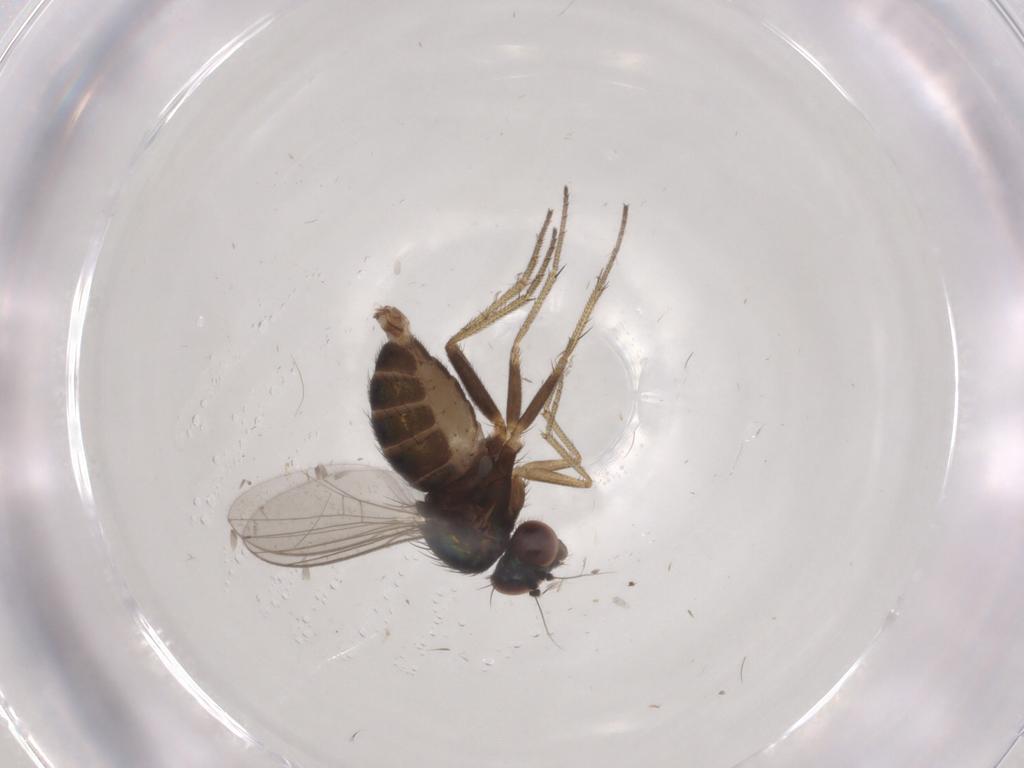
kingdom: Animalia
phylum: Arthropoda
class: Insecta
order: Diptera
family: Dolichopodidae
